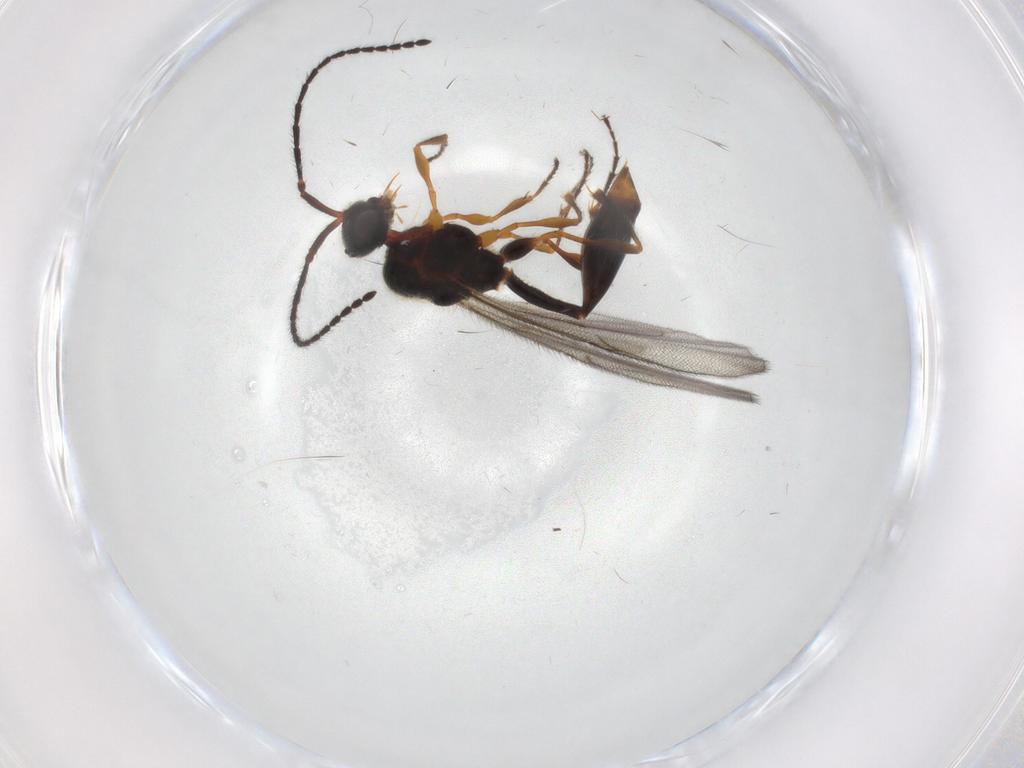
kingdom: Animalia
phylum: Arthropoda
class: Insecta
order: Hymenoptera
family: Diapriidae
